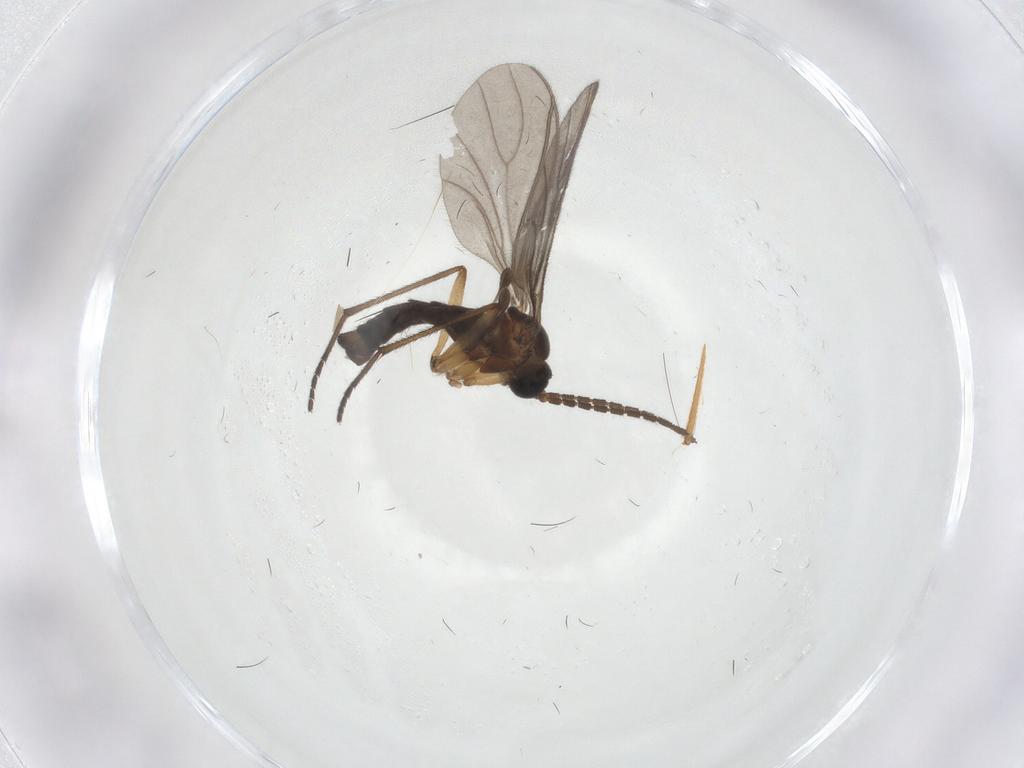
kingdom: Animalia
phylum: Arthropoda
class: Insecta
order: Diptera
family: Sciaridae
